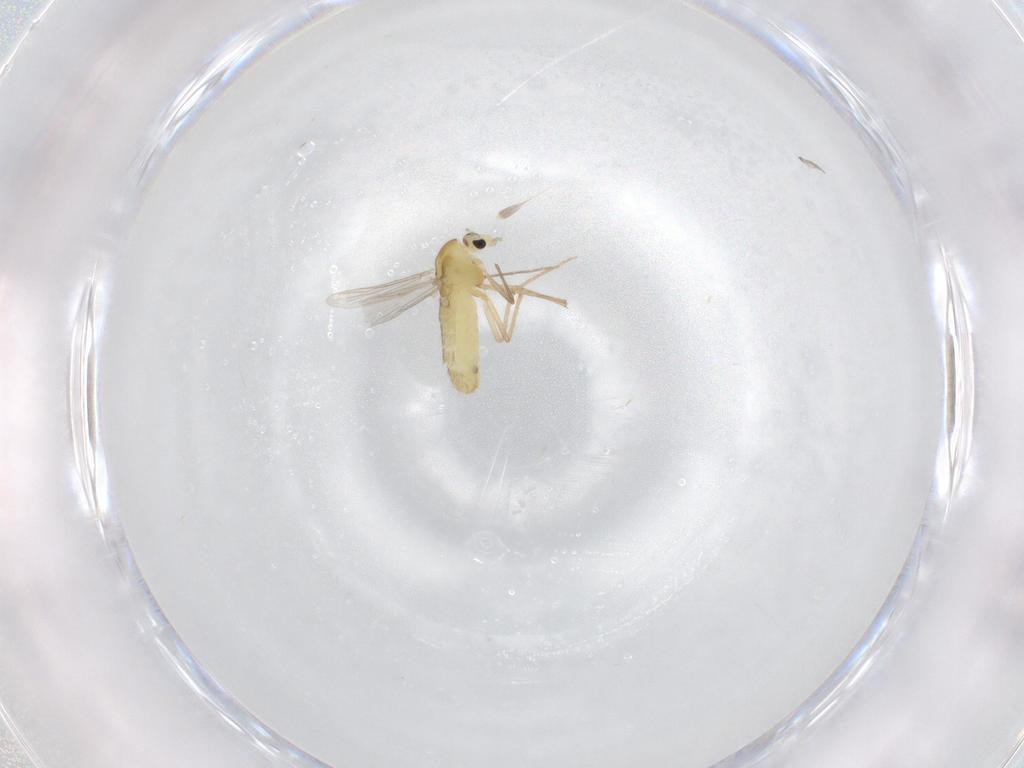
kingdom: Animalia
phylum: Arthropoda
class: Insecta
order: Diptera
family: Chironomidae
